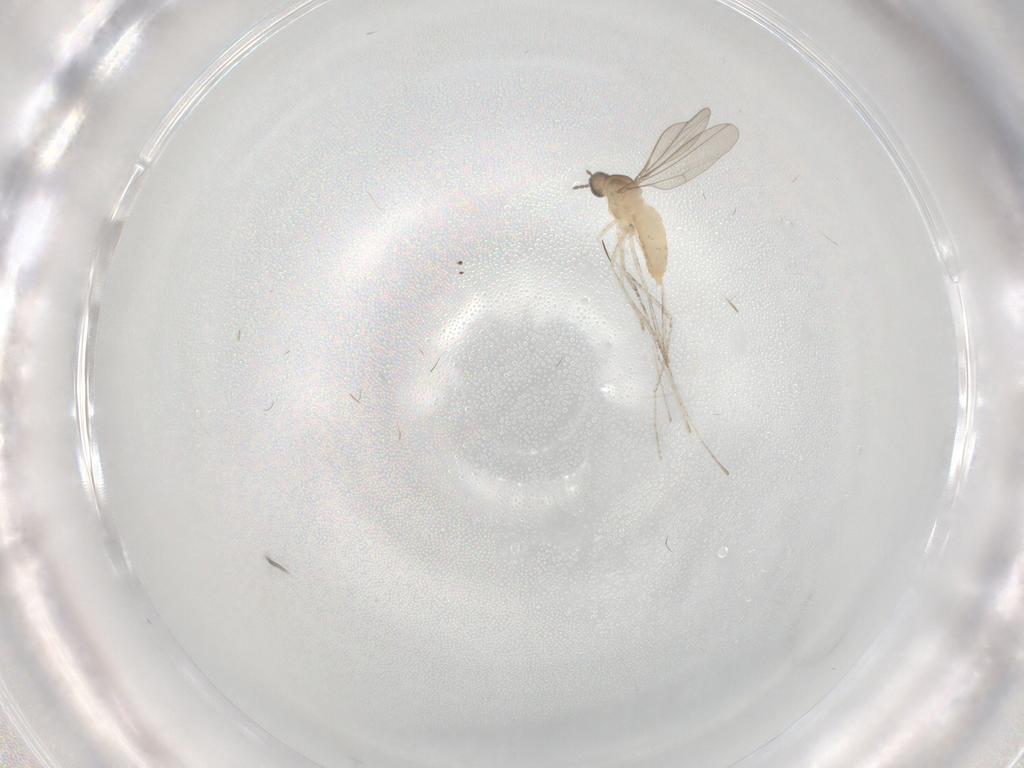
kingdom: Animalia
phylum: Arthropoda
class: Insecta
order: Diptera
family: Cecidomyiidae
